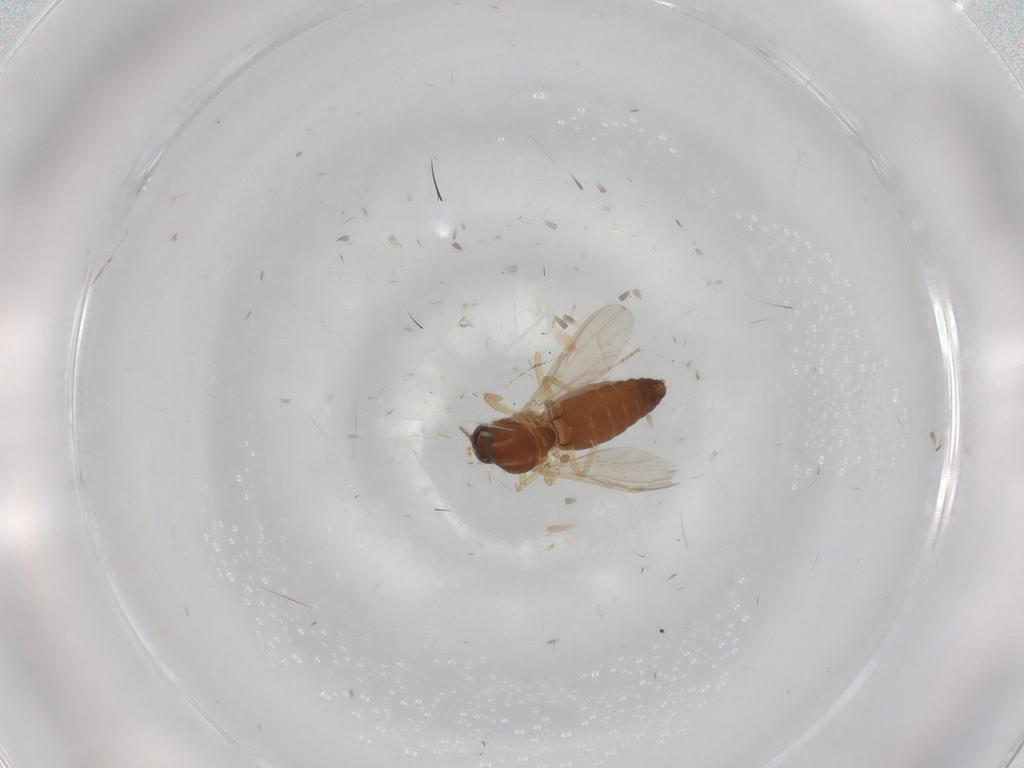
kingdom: Animalia
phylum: Arthropoda
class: Insecta
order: Diptera
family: Ceratopogonidae
